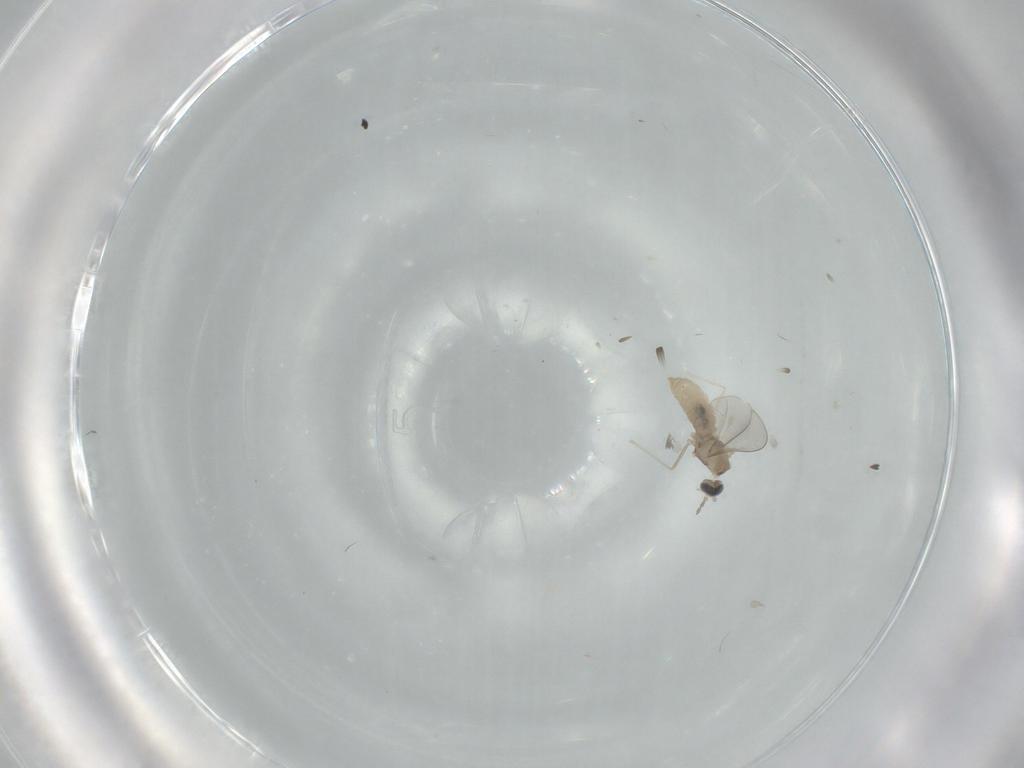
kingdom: Animalia
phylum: Arthropoda
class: Insecta
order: Diptera
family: Cecidomyiidae
